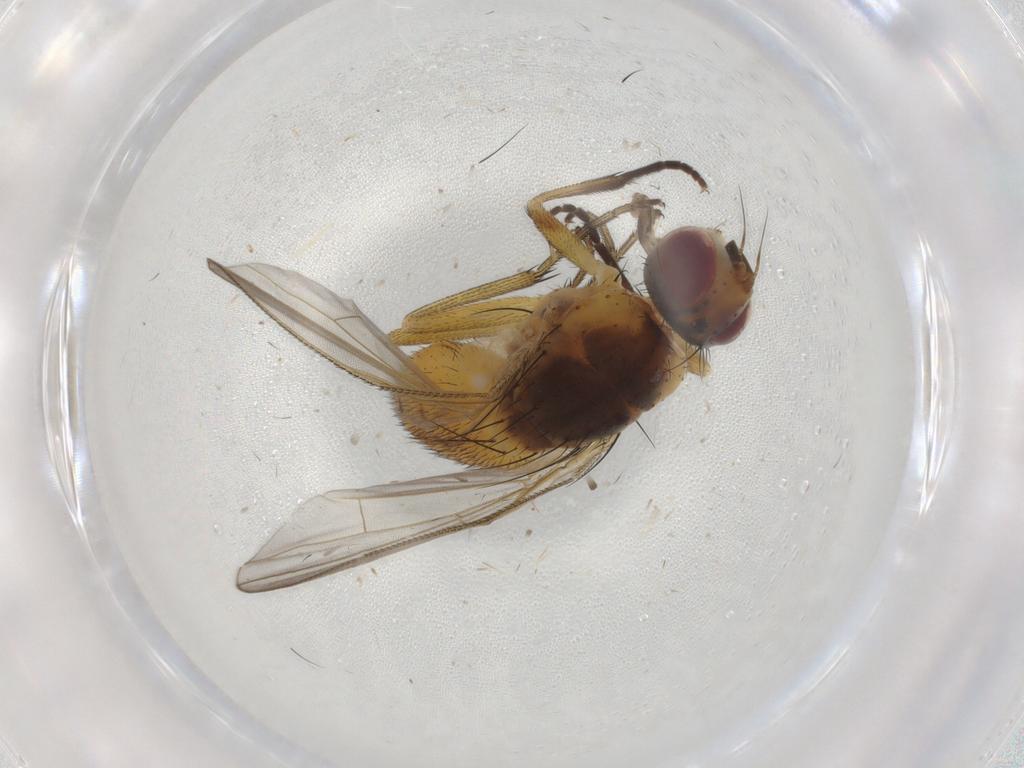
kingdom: Animalia
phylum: Arthropoda
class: Insecta
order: Diptera
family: Muscidae
